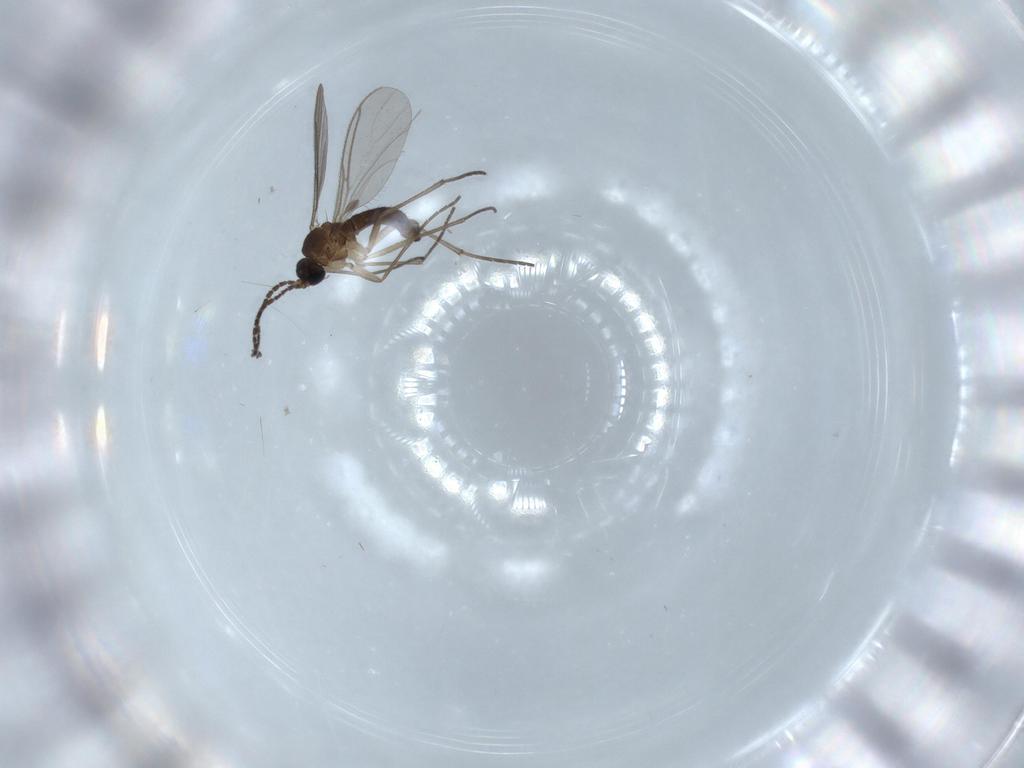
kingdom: Animalia
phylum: Arthropoda
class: Insecta
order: Diptera
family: Sciaridae
